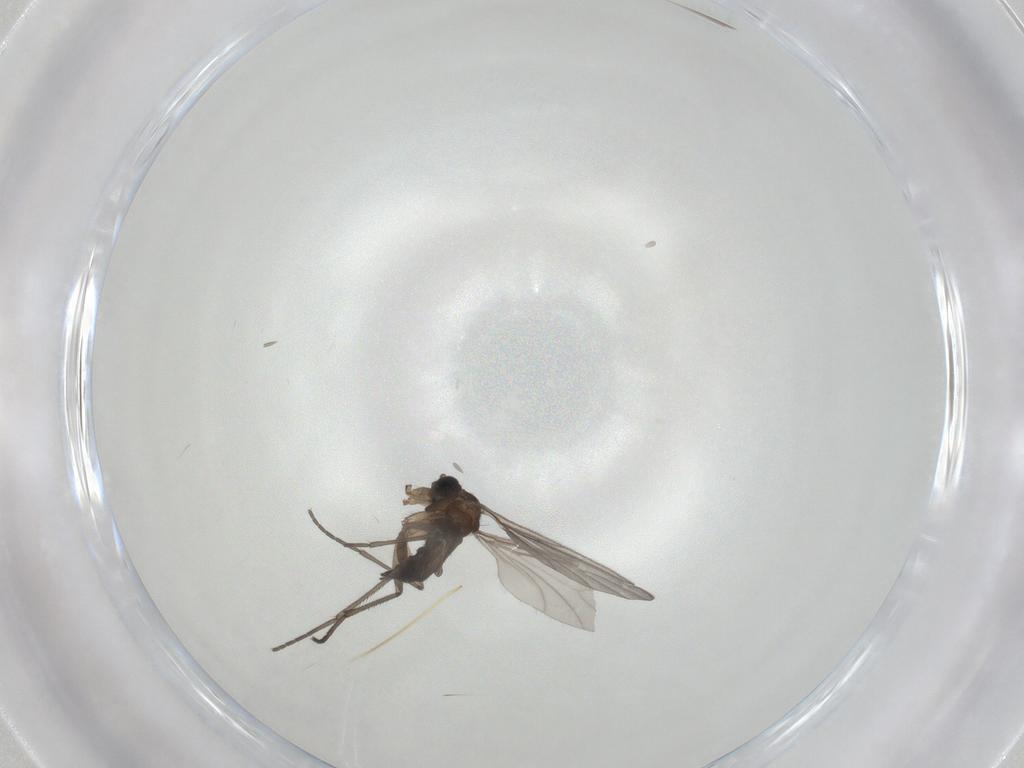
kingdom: Animalia
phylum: Arthropoda
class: Insecta
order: Diptera
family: Sciaridae
